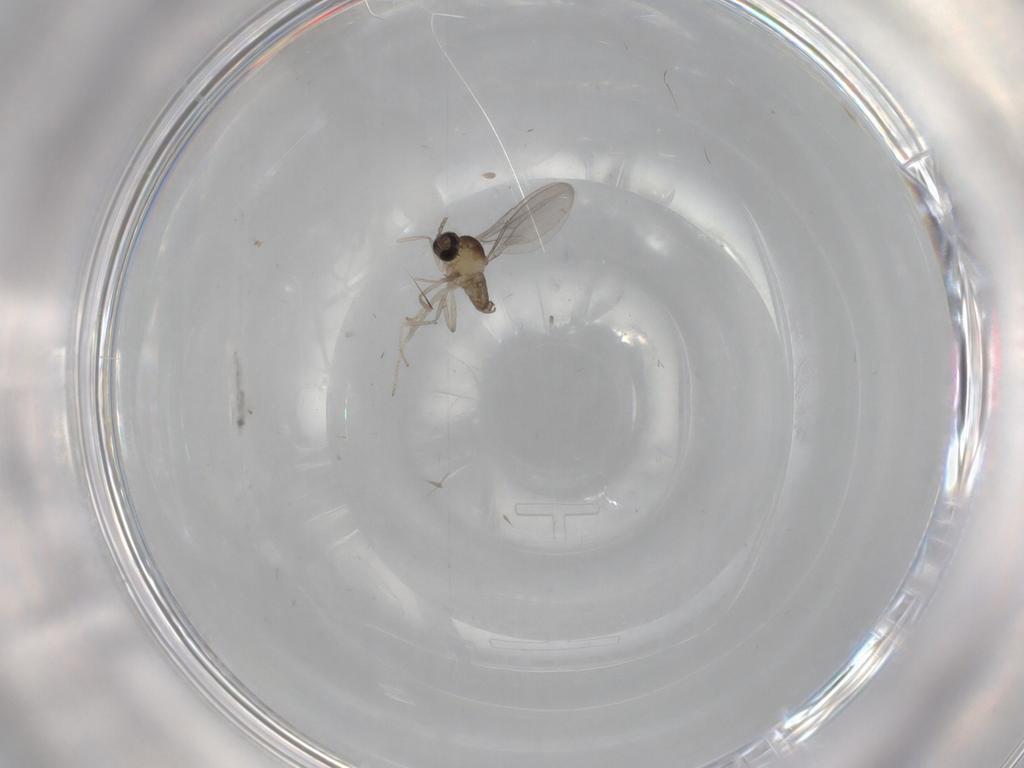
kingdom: Animalia
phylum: Arthropoda
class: Insecta
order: Diptera
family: Cecidomyiidae
